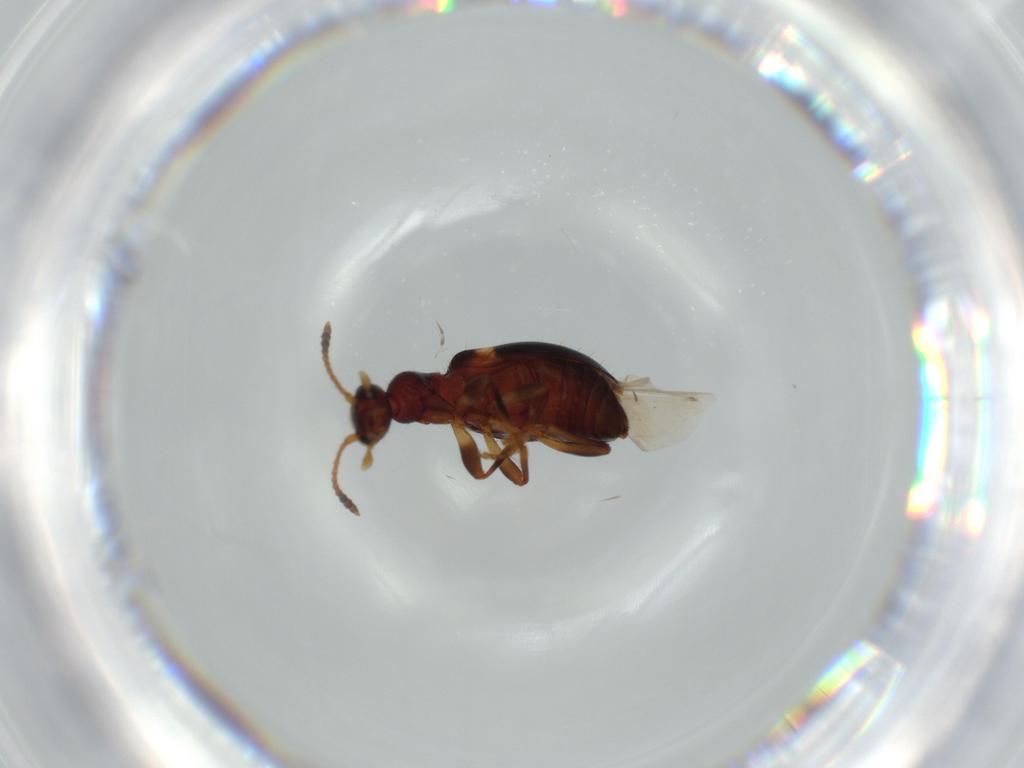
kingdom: Animalia
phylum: Arthropoda
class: Insecta
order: Coleoptera
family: Anthicidae
